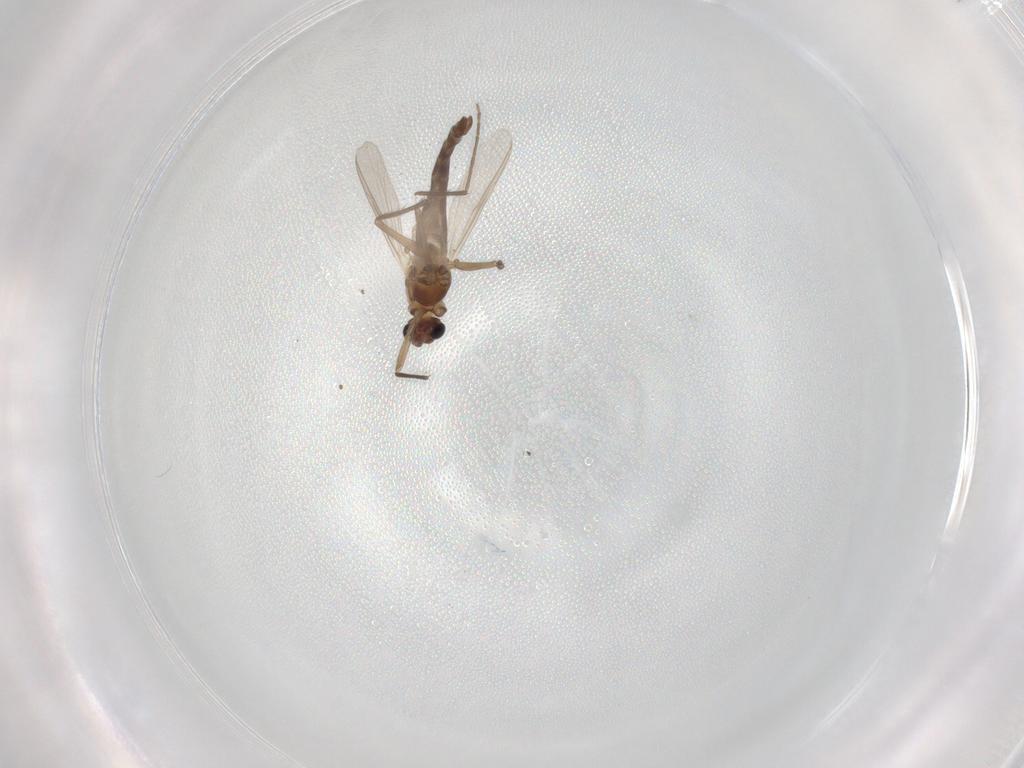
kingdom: Animalia
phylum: Arthropoda
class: Insecta
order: Diptera
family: Chironomidae
